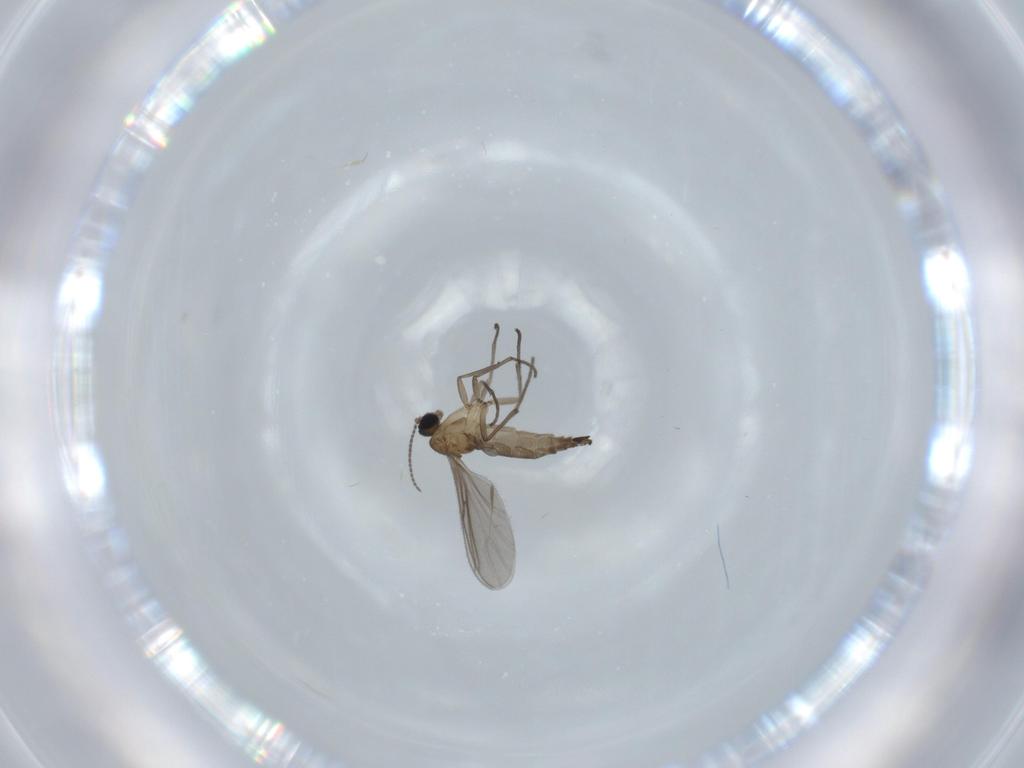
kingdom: Animalia
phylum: Arthropoda
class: Insecta
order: Diptera
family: Sciaridae
